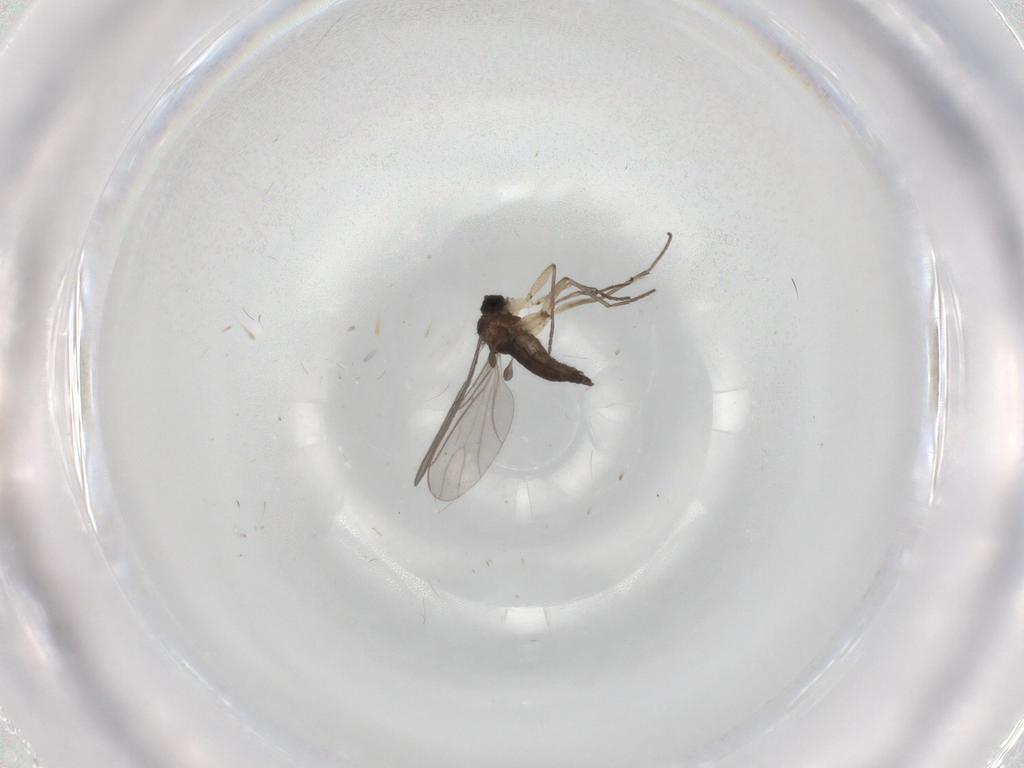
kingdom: Animalia
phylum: Arthropoda
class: Insecta
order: Diptera
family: Sciaridae
